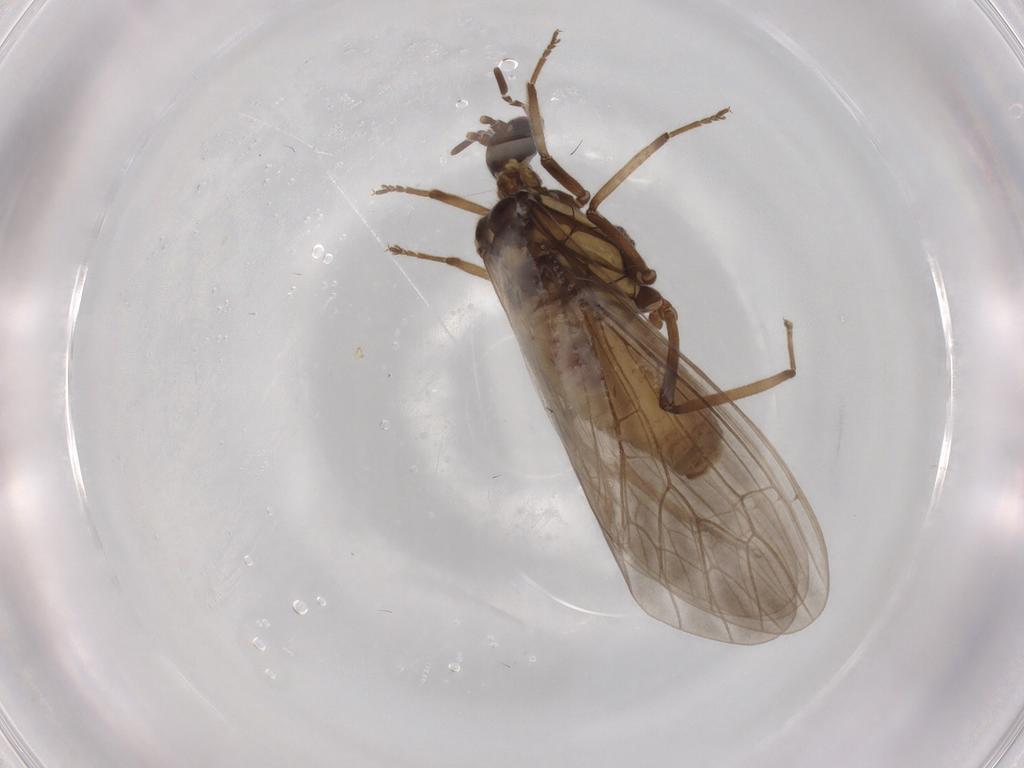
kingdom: Animalia
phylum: Arthropoda
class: Insecta
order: Neuroptera
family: Coniopterygidae
